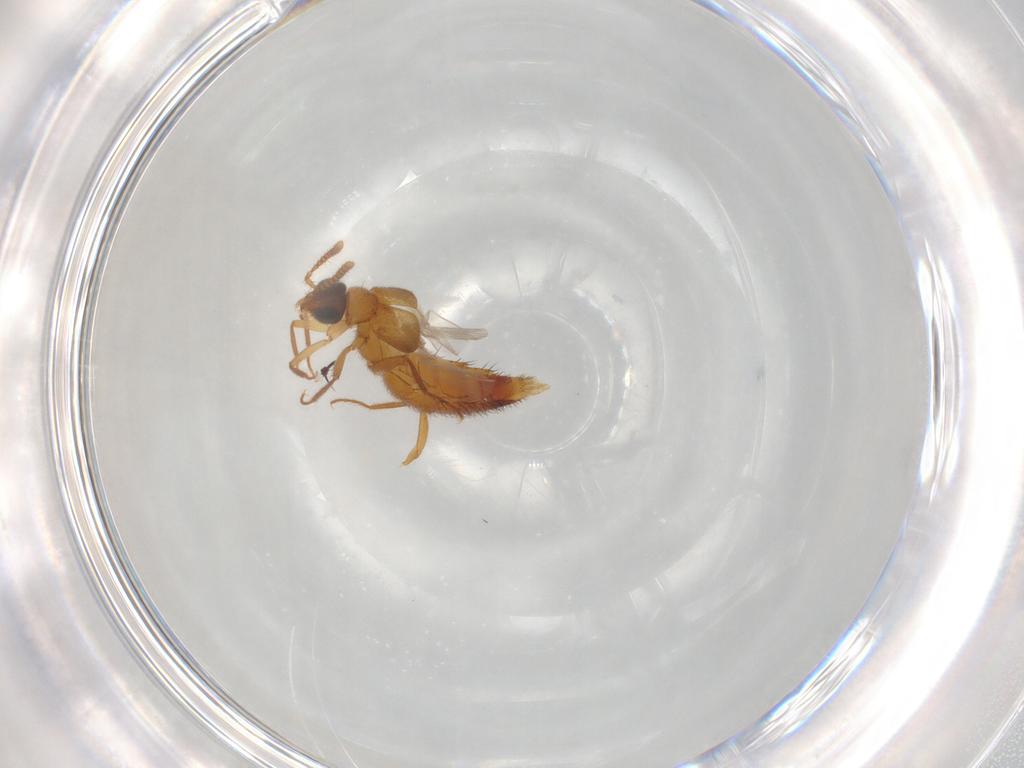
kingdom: Animalia
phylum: Arthropoda
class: Insecta
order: Coleoptera
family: Staphylinidae
